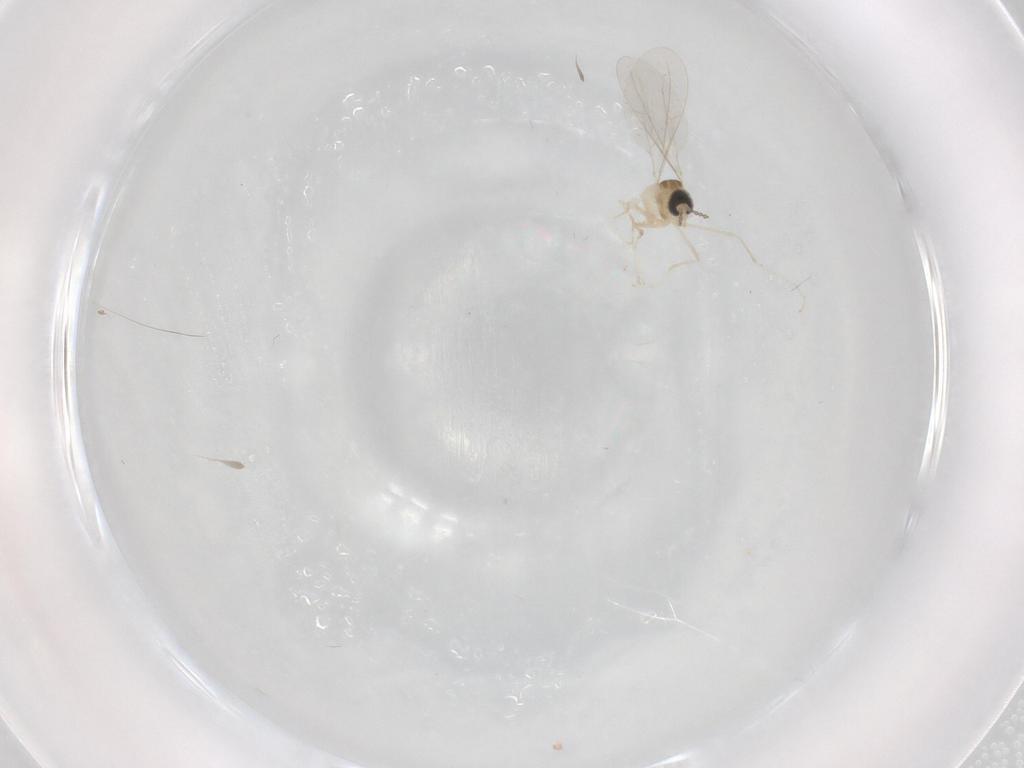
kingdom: Animalia
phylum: Arthropoda
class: Insecta
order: Diptera
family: Cecidomyiidae
